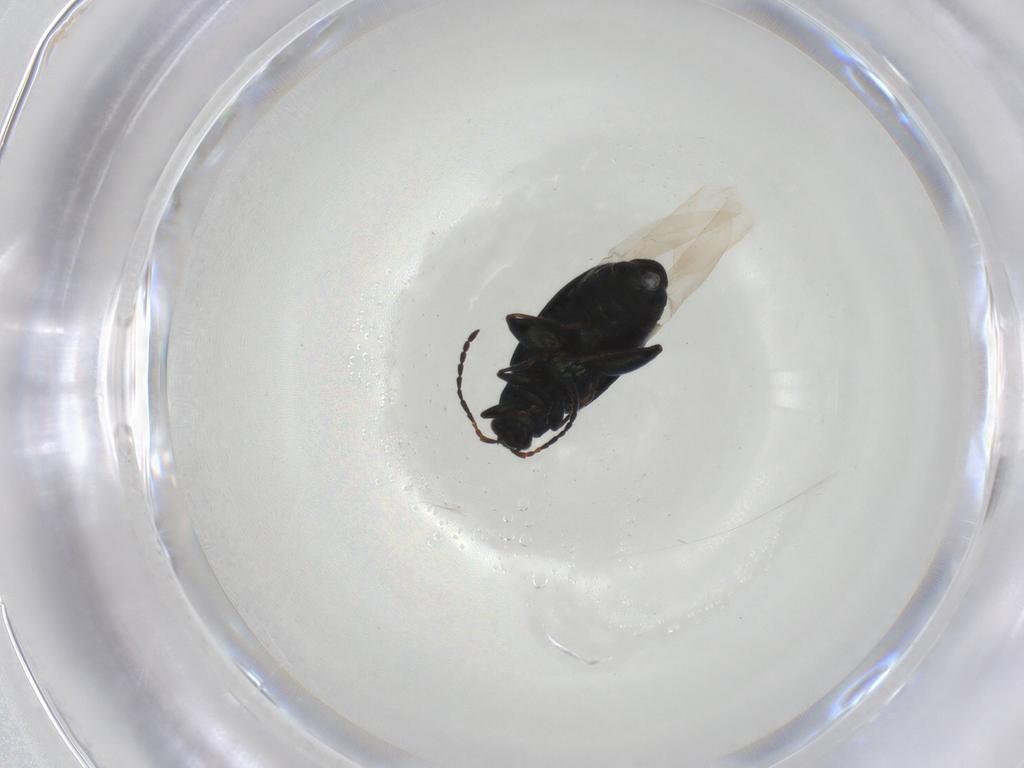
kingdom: Animalia
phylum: Arthropoda
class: Insecta
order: Coleoptera
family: Chrysomelidae
